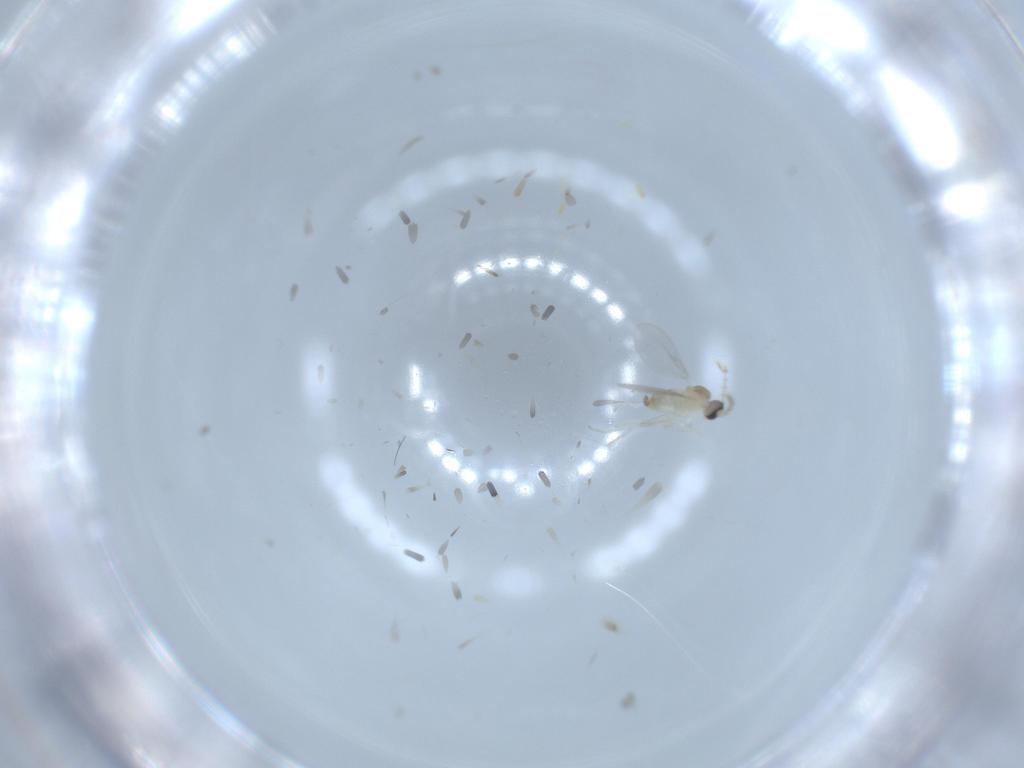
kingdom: Animalia
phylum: Arthropoda
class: Insecta
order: Diptera
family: Cecidomyiidae
